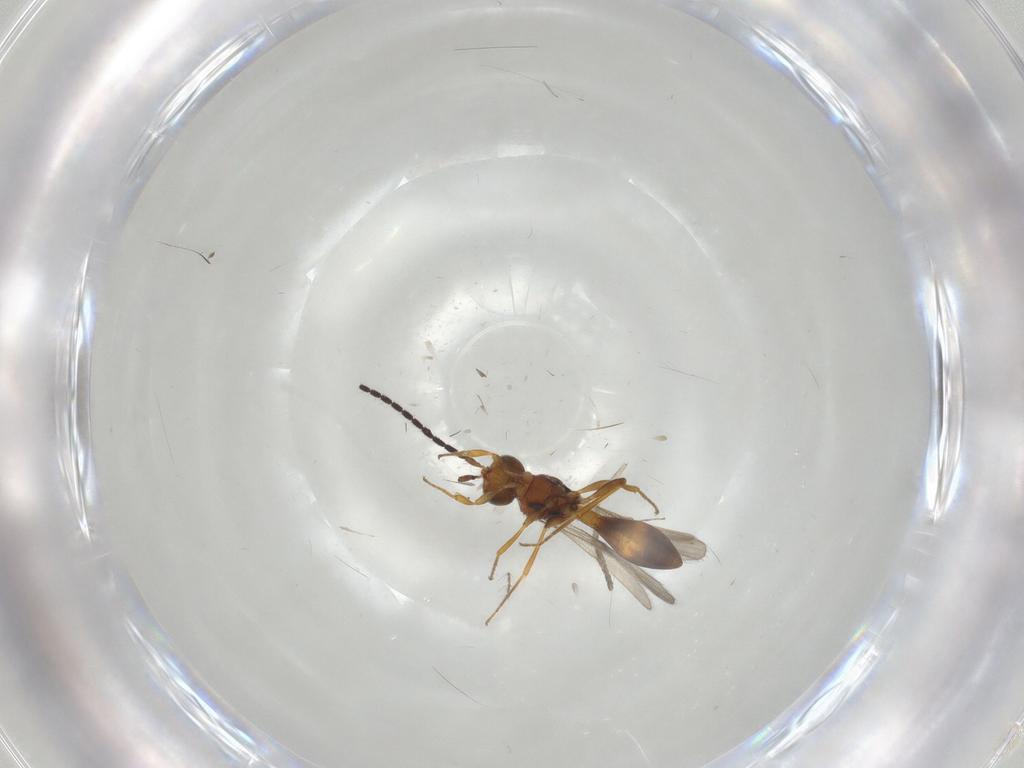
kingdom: Animalia
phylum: Arthropoda
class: Insecta
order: Hymenoptera
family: Scelionidae
